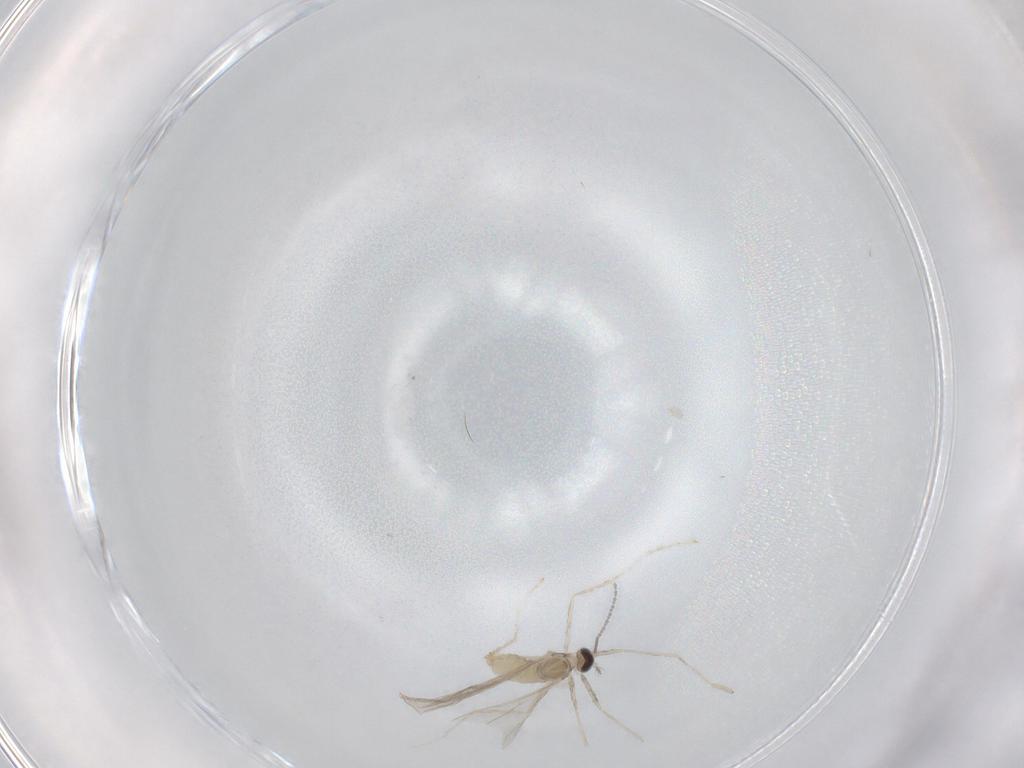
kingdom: Animalia
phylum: Arthropoda
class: Insecta
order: Diptera
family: Cecidomyiidae
